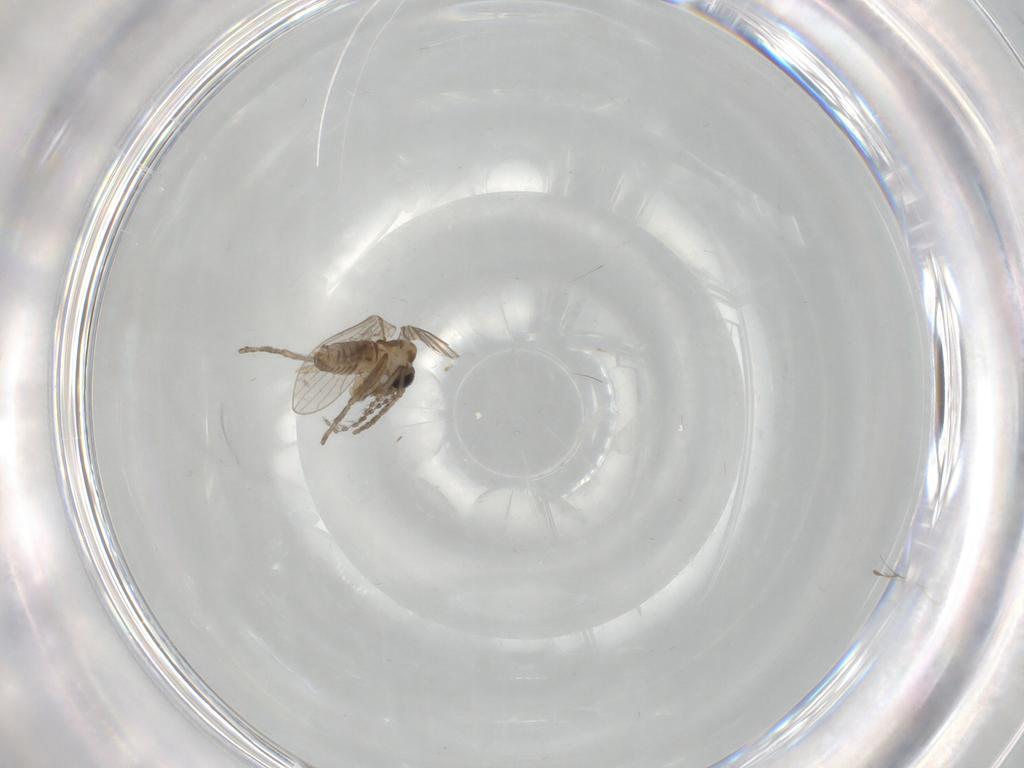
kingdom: Animalia
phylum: Arthropoda
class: Insecta
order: Diptera
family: Psychodidae
